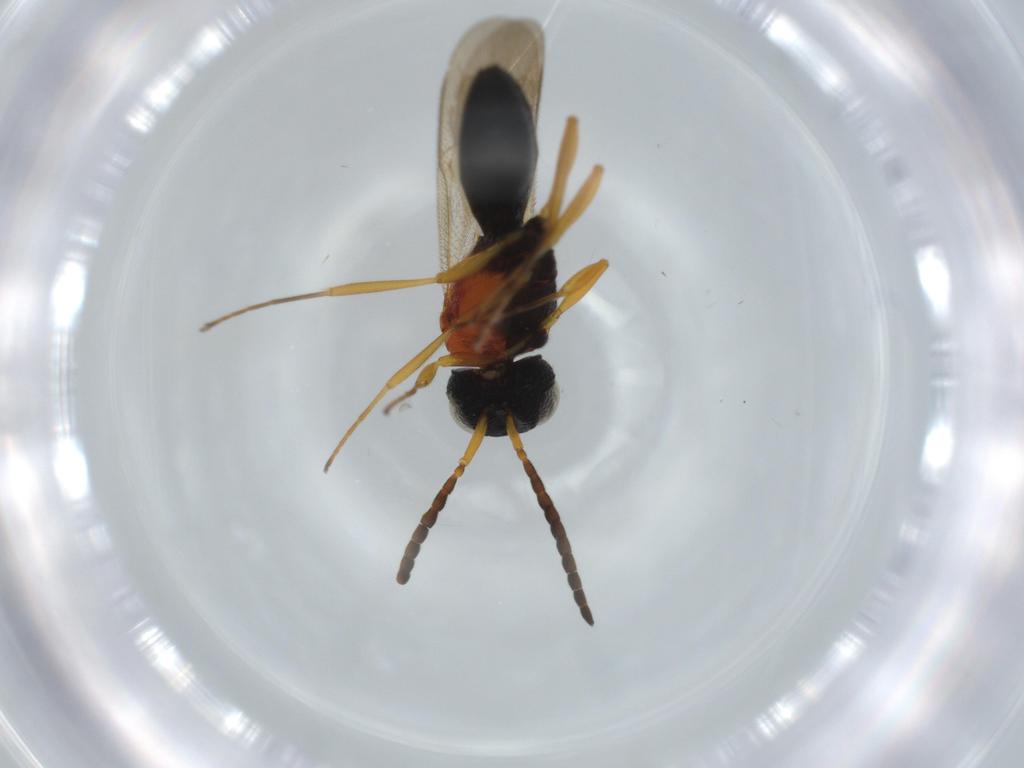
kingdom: Animalia
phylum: Arthropoda
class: Insecta
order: Hymenoptera
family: Scelionidae
